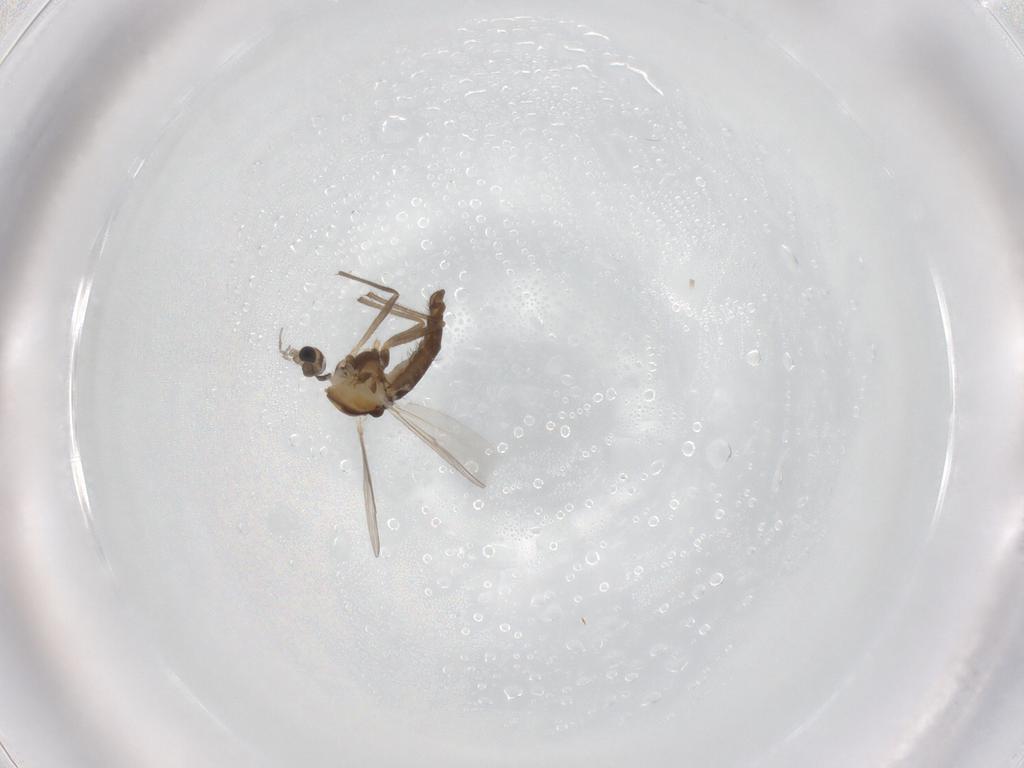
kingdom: Animalia
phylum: Arthropoda
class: Insecta
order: Diptera
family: Chironomidae
